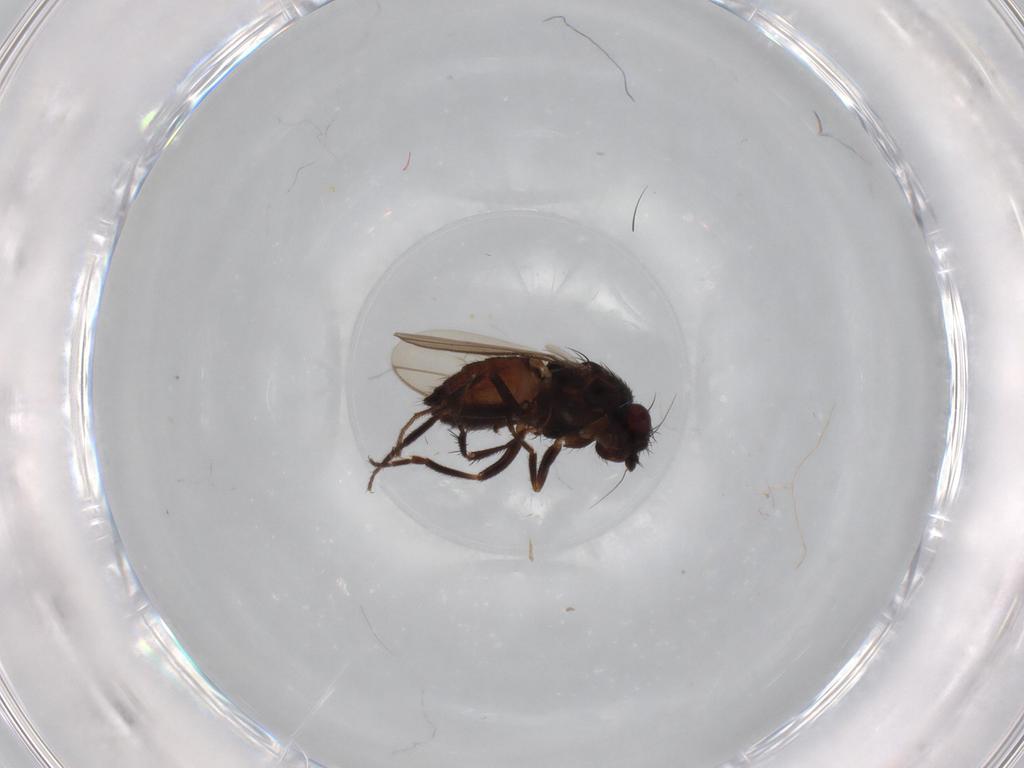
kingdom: Animalia
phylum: Arthropoda
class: Insecta
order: Diptera
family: Sphaeroceridae
